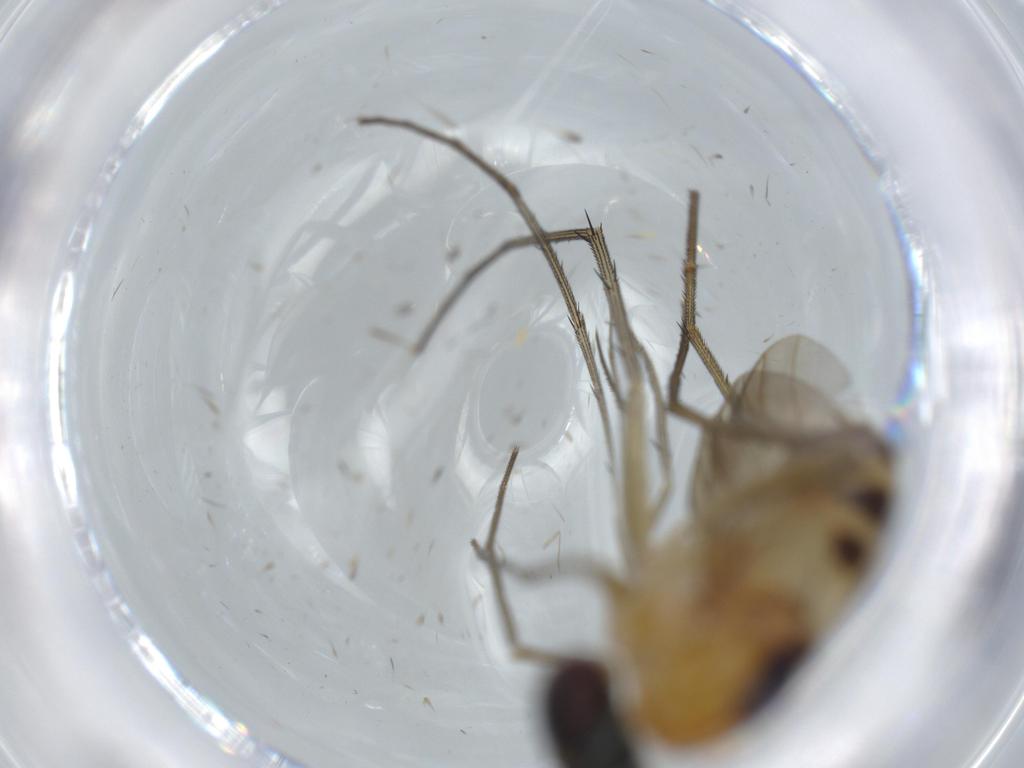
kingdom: Animalia
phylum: Arthropoda
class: Insecta
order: Diptera
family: Dolichopodidae
